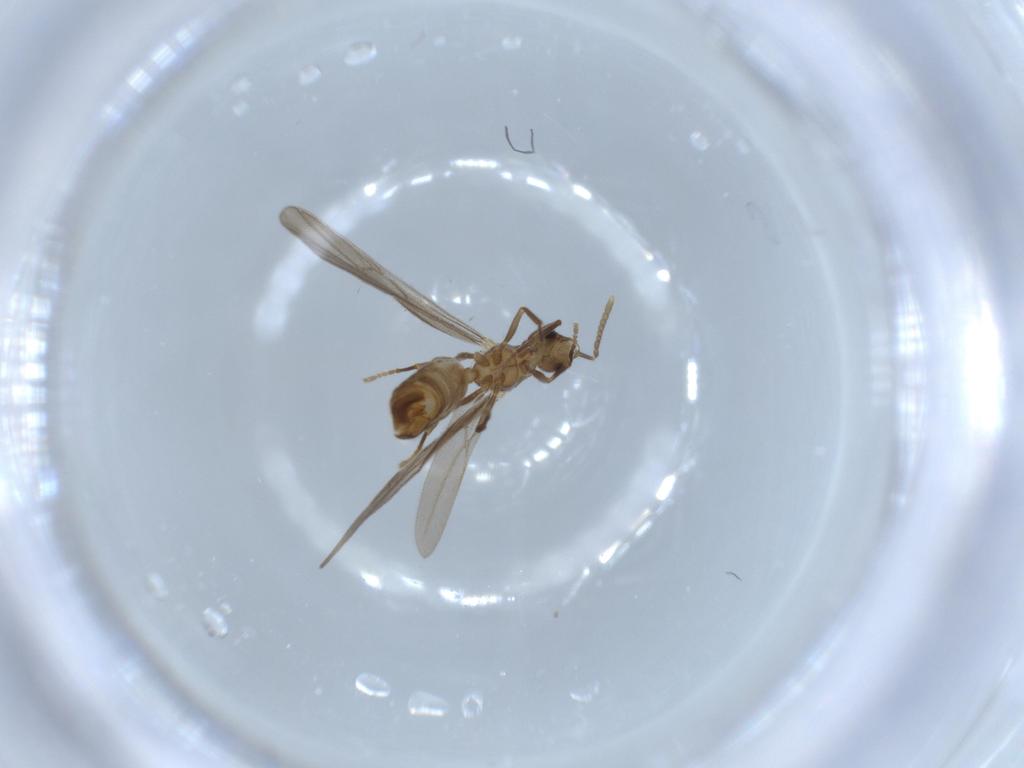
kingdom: Animalia
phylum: Arthropoda
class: Insecta
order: Hymenoptera
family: Formicidae
